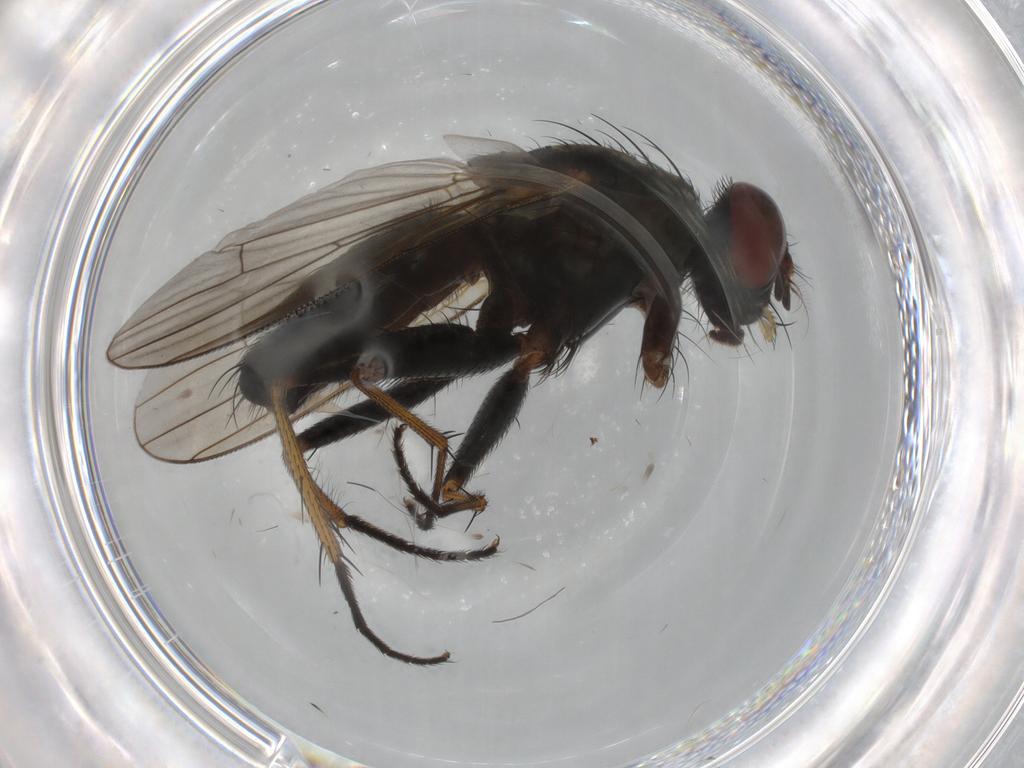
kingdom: Animalia
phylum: Arthropoda
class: Insecta
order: Diptera
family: Muscidae
